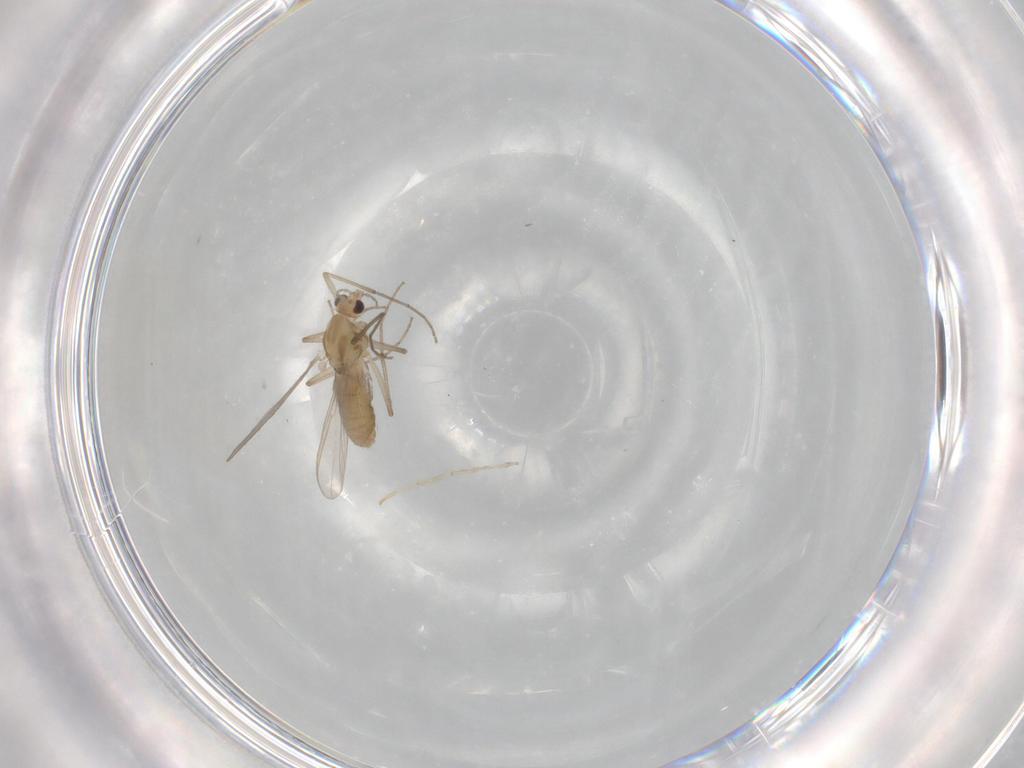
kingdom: Animalia
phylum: Arthropoda
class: Insecta
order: Diptera
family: Chironomidae
